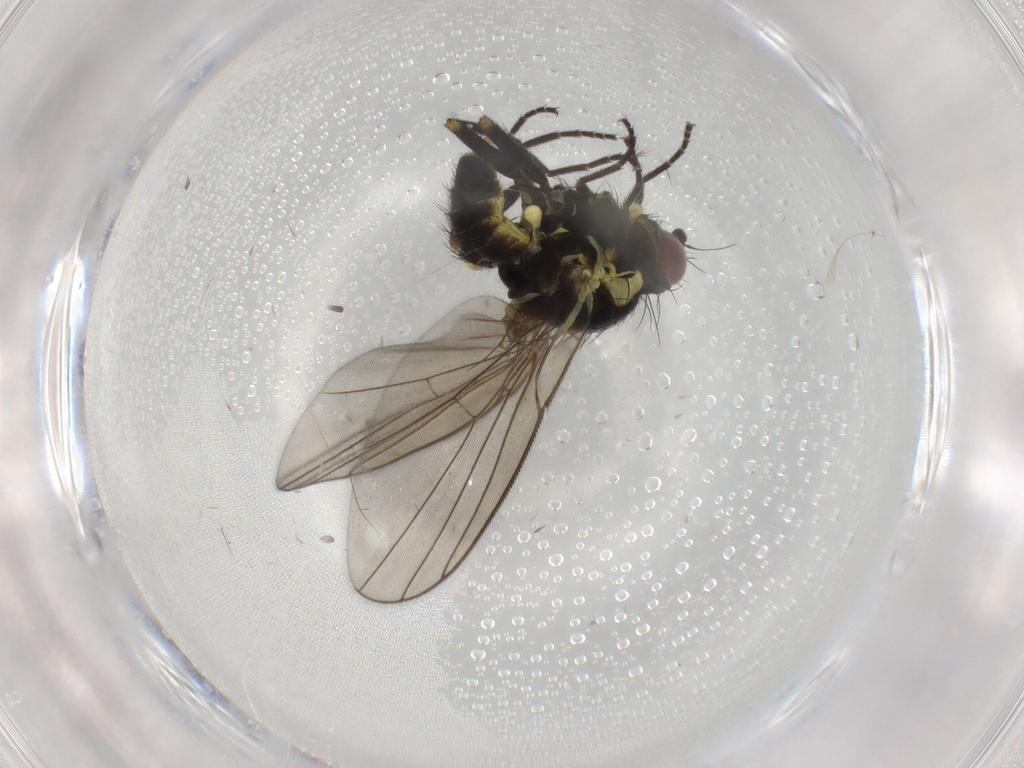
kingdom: Animalia
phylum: Arthropoda
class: Insecta
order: Diptera
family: Agromyzidae
